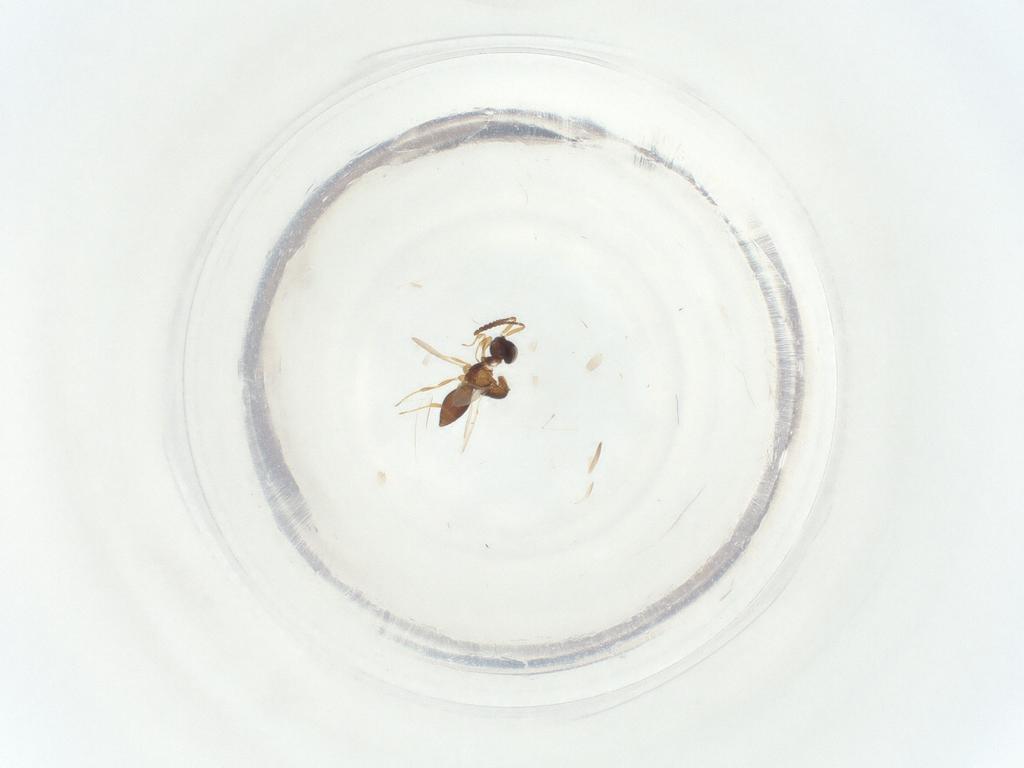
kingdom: Animalia
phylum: Arthropoda
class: Insecta
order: Hymenoptera
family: Scelionidae
